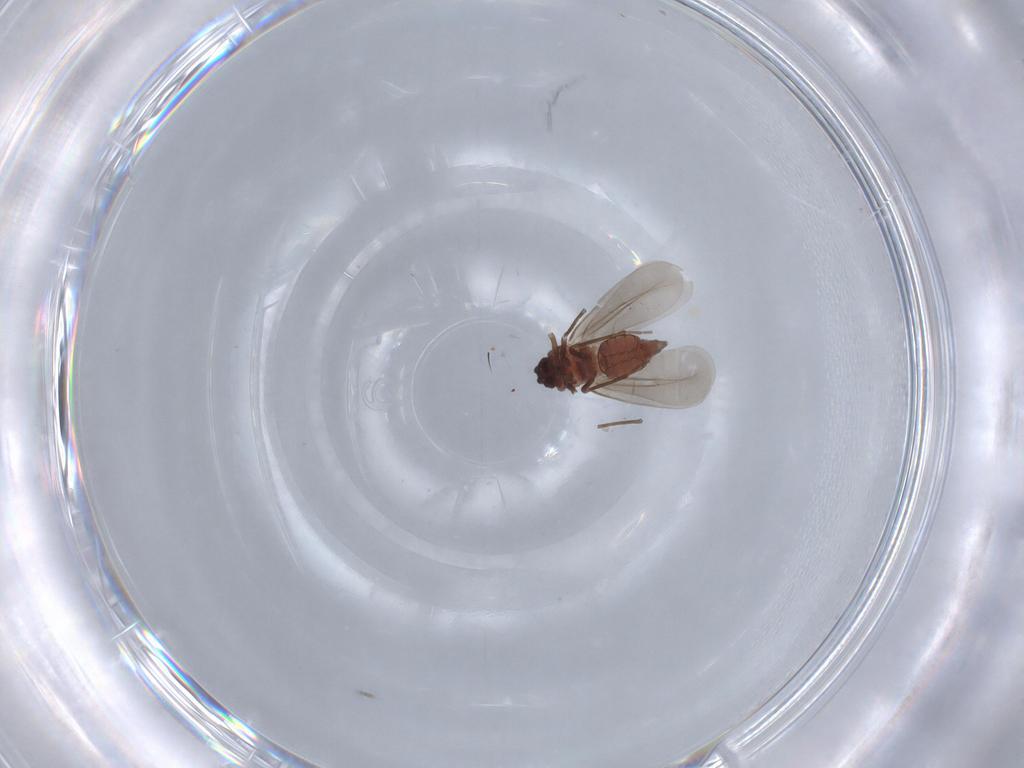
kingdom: Animalia
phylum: Arthropoda
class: Insecta
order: Hemiptera
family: Aleyrodidae
